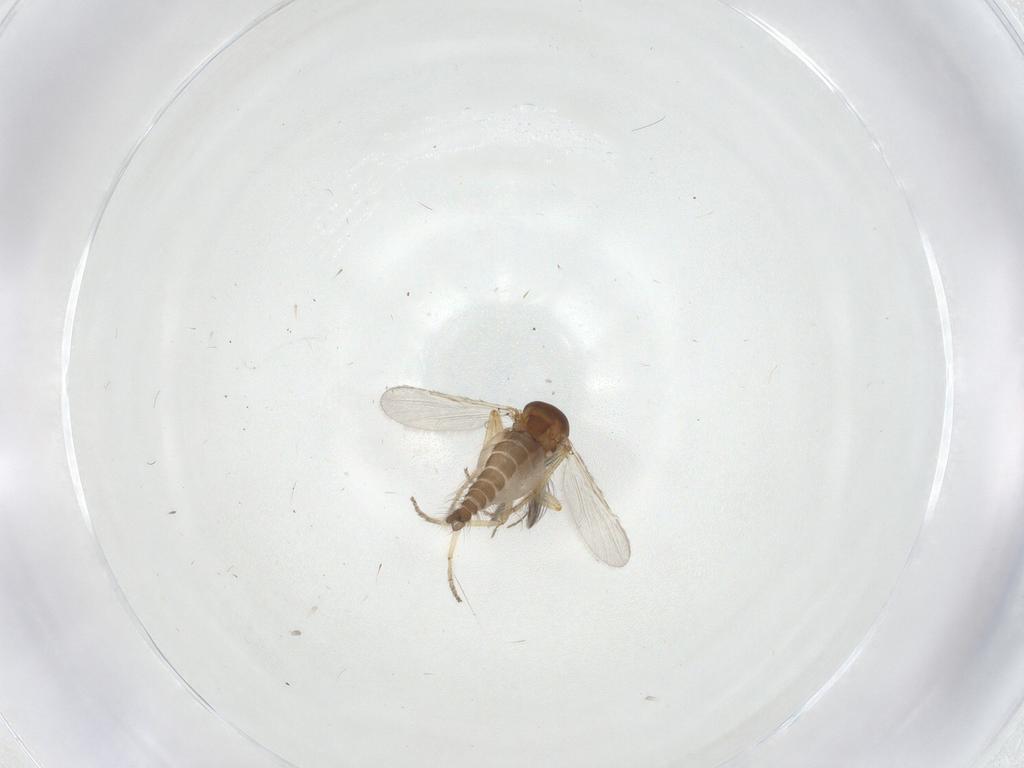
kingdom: Animalia
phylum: Arthropoda
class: Insecta
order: Diptera
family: Ceratopogonidae
